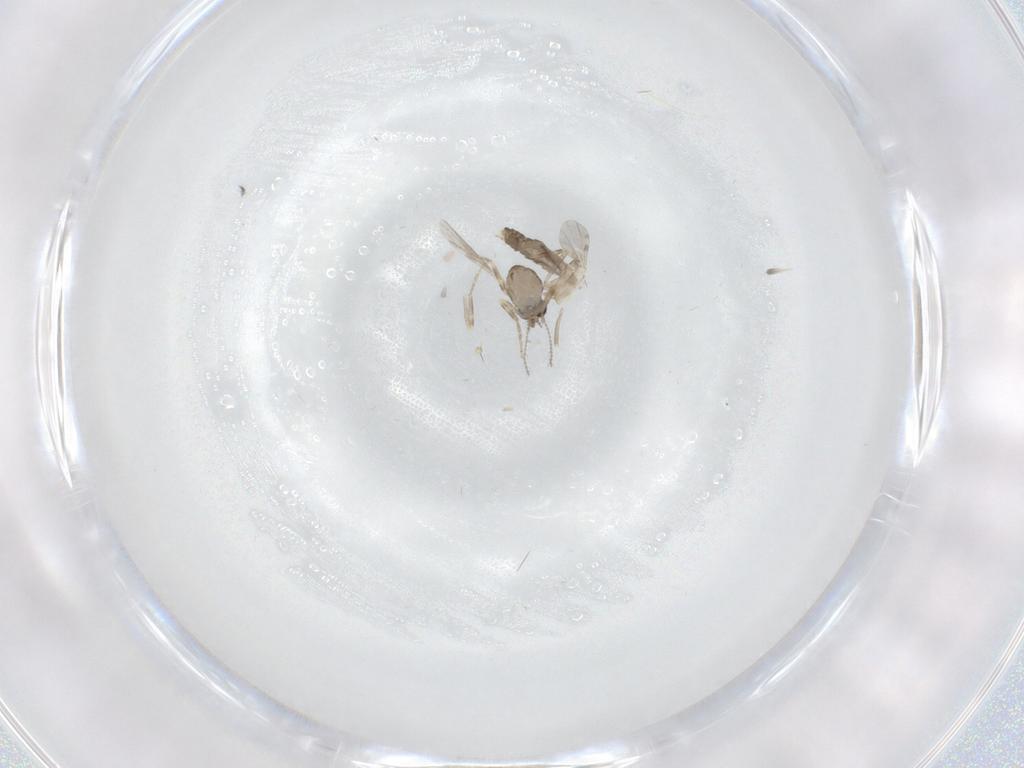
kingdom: Animalia
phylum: Arthropoda
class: Insecta
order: Diptera
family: Ceratopogonidae
